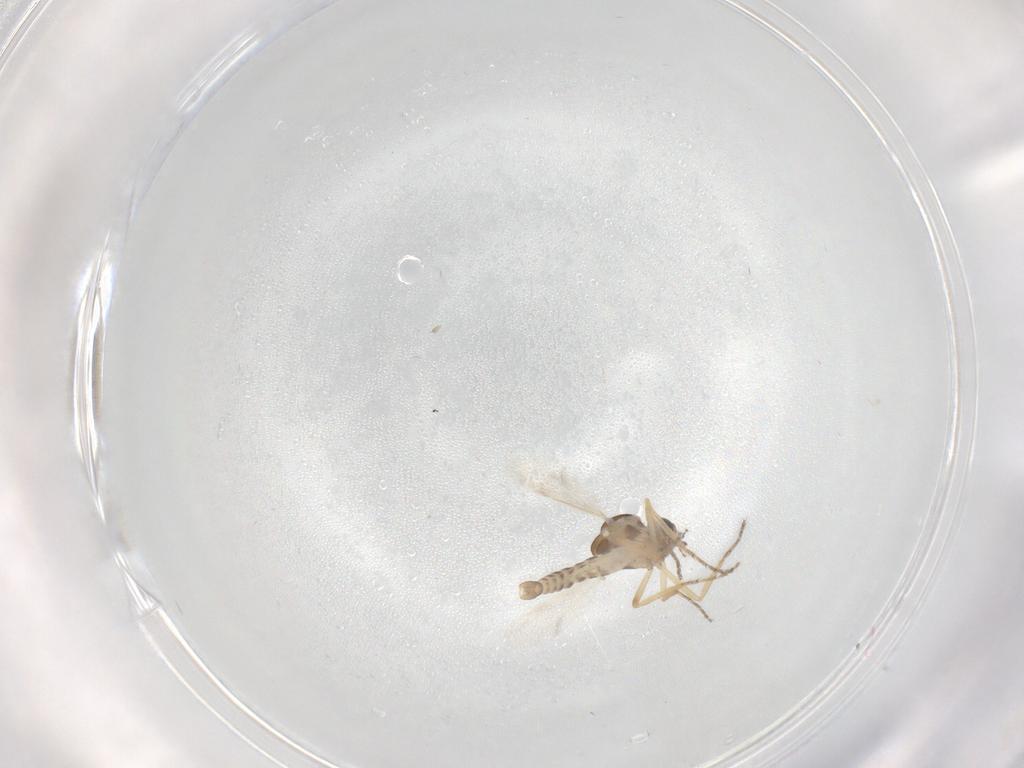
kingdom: Animalia
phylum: Arthropoda
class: Insecta
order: Diptera
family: Ceratopogonidae
